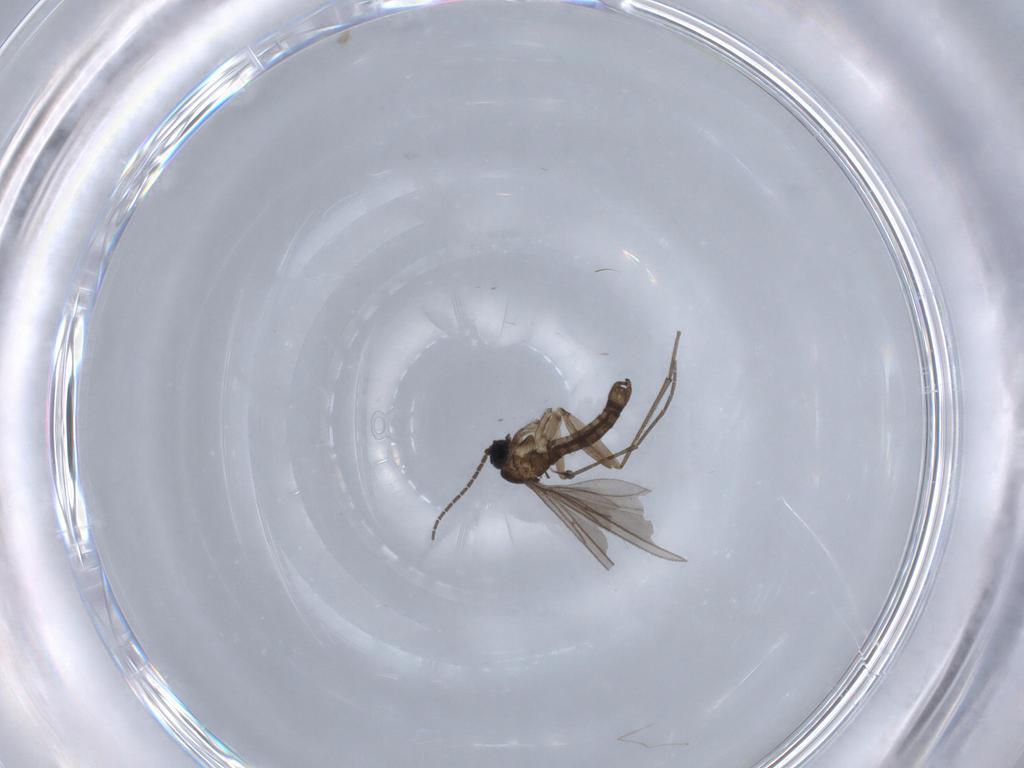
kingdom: Animalia
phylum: Arthropoda
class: Insecta
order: Diptera
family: Sciaridae
